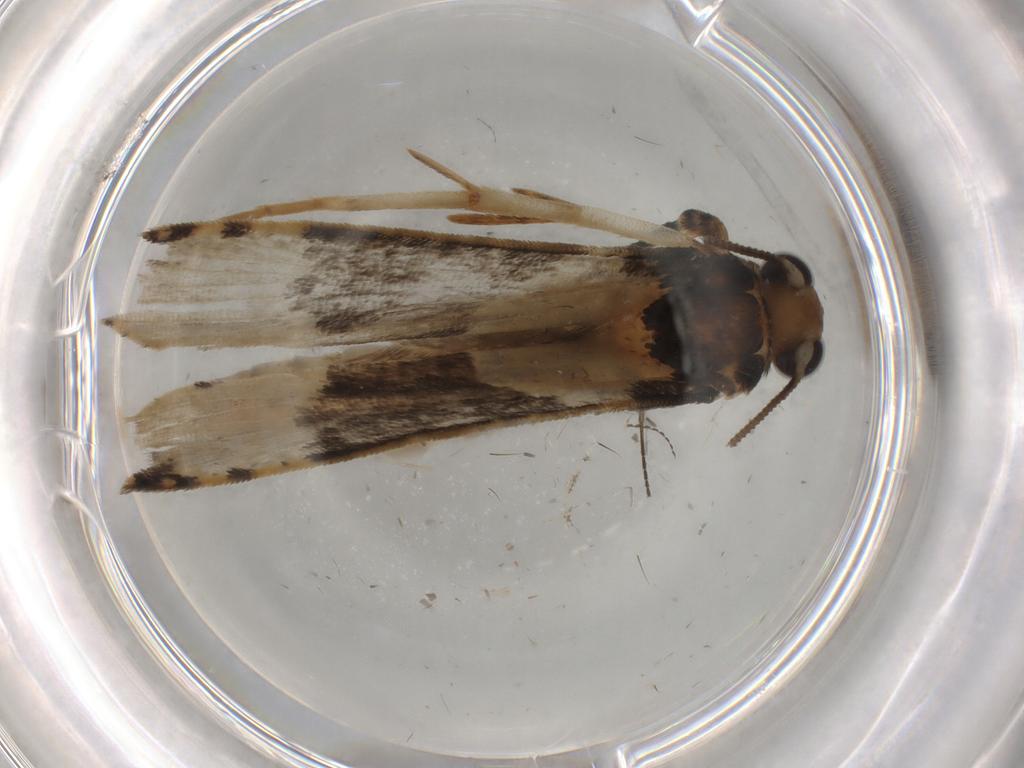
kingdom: Animalia
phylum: Arthropoda
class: Insecta
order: Lepidoptera
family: Tineidae
